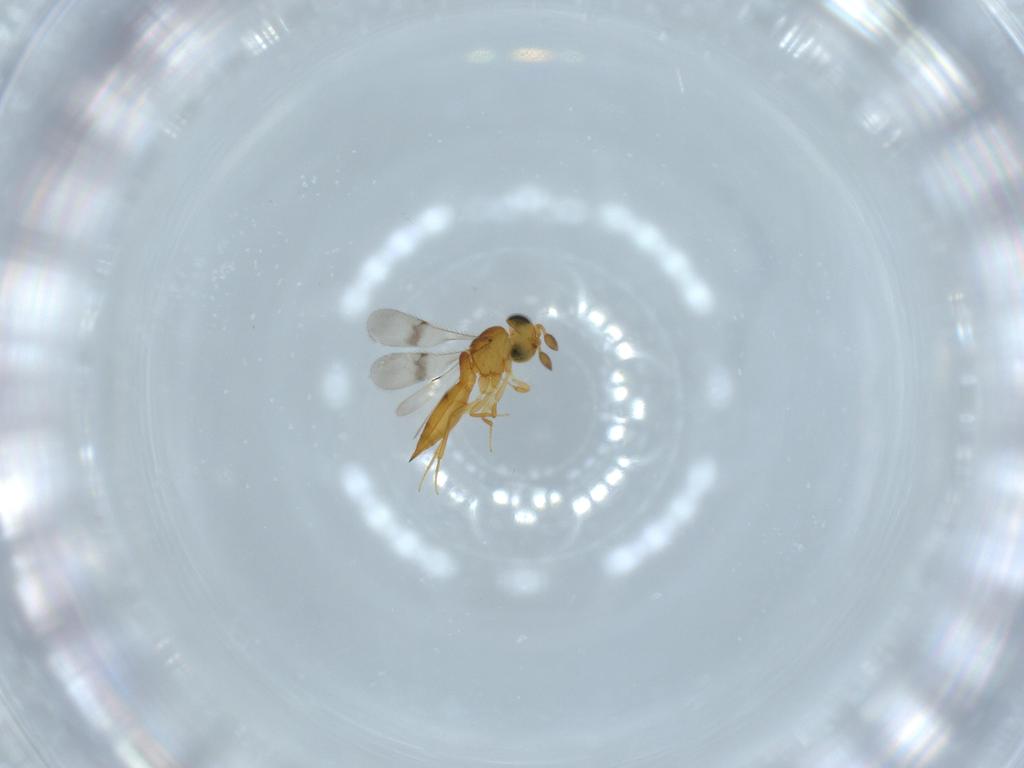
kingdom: Animalia
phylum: Arthropoda
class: Insecta
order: Hymenoptera
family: Scelionidae
